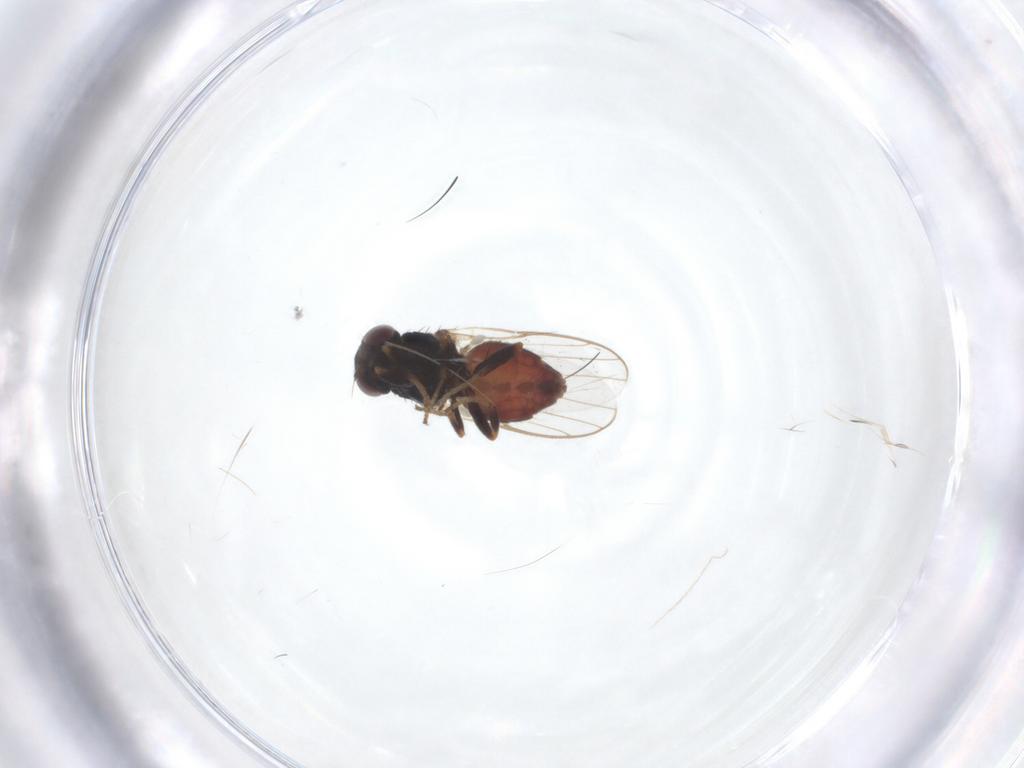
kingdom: Animalia
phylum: Arthropoda
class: Insecta
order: Diptera
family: Chloropidae
